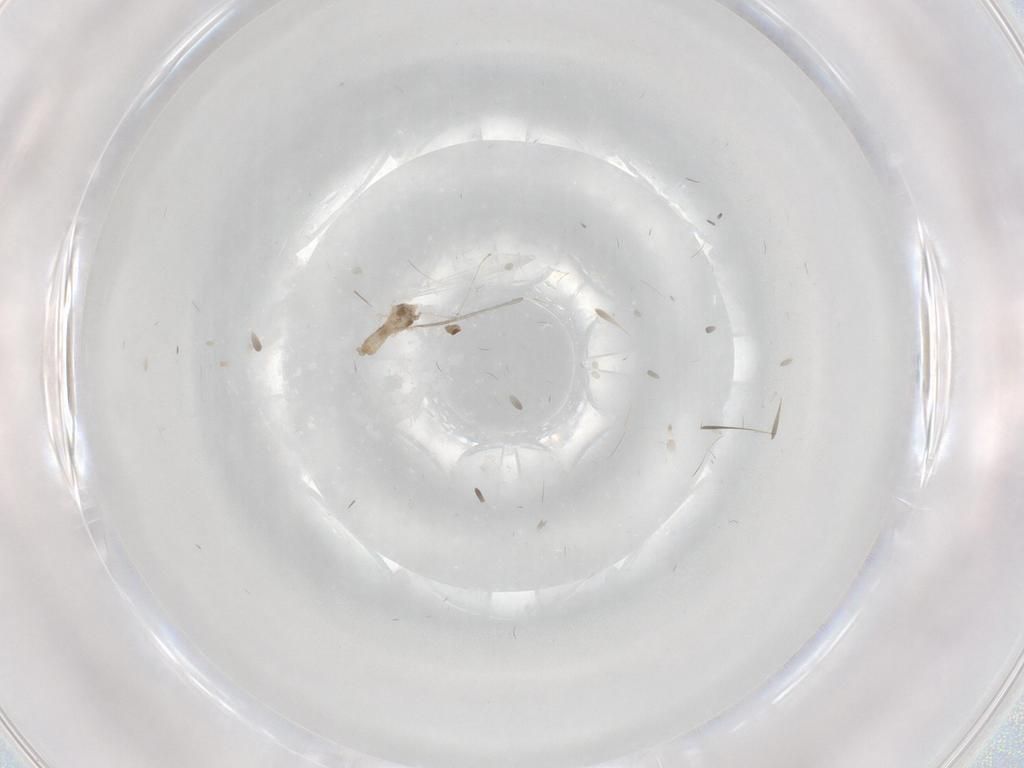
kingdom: Animalia
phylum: Arthropoda
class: Insecta
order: Diptera
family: Cecidomyiidae
